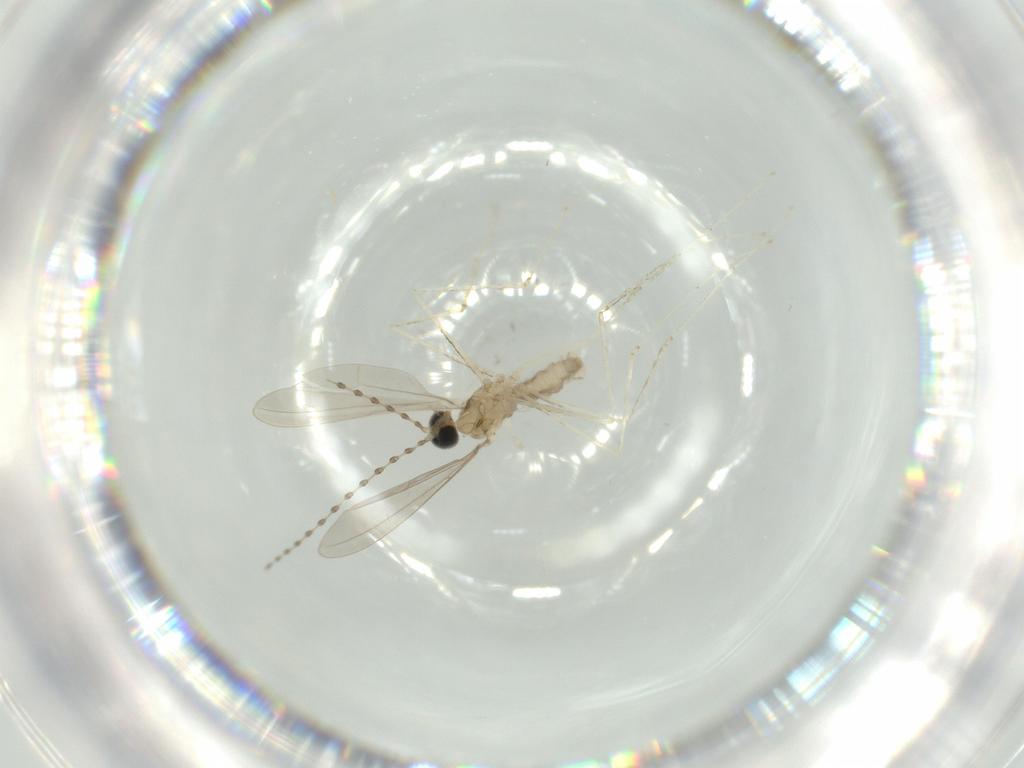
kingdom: Animalia
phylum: Arthropoda
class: Insecta
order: Diptera
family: Cecidomyiidae
